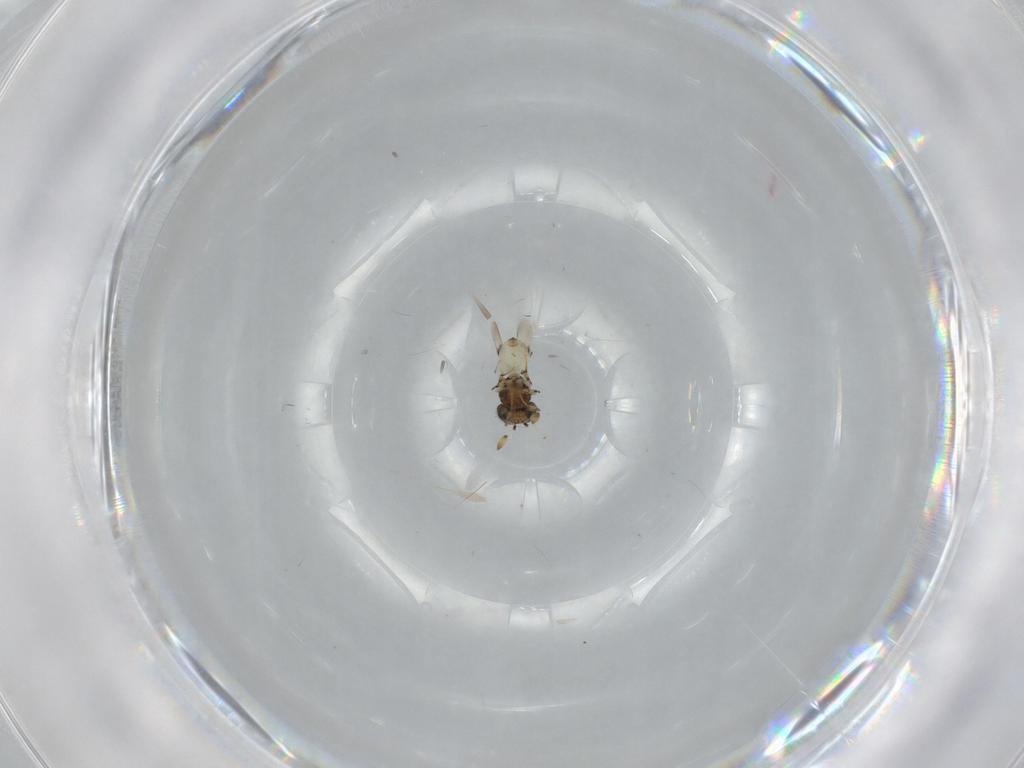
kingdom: Animalia
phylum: Arthropoda
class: Insecta
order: Hymenoptera
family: Scelionidae
